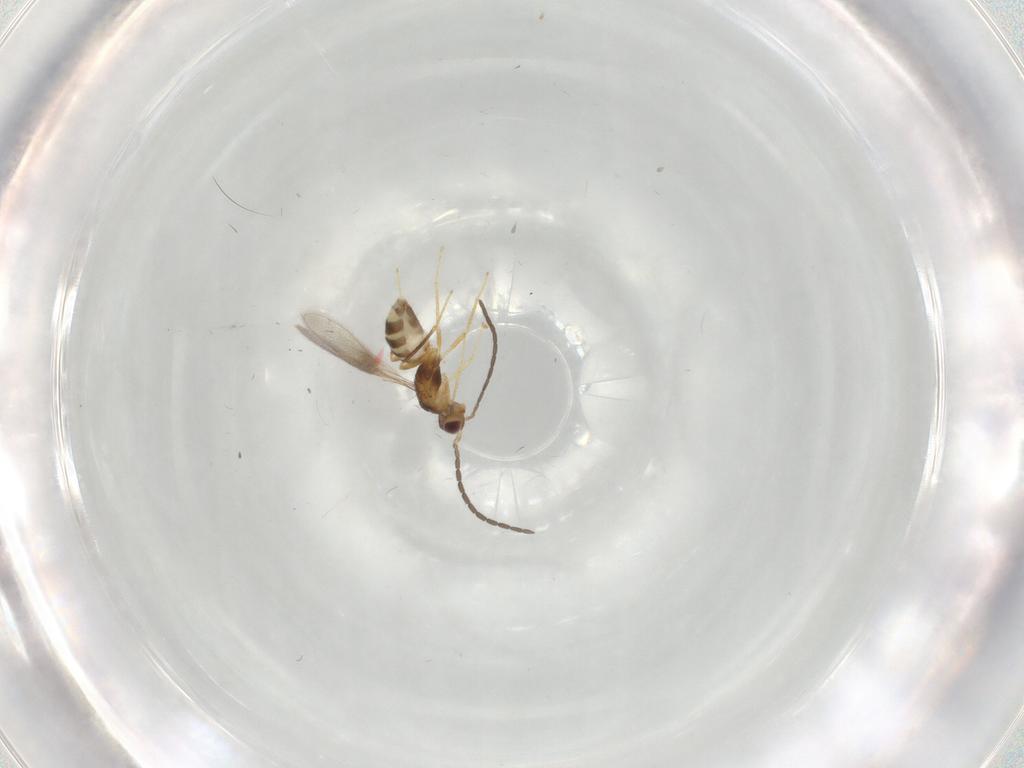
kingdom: Animalia
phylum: Arthropoda
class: Insecta
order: Hymenoptera
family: Mymaridae
